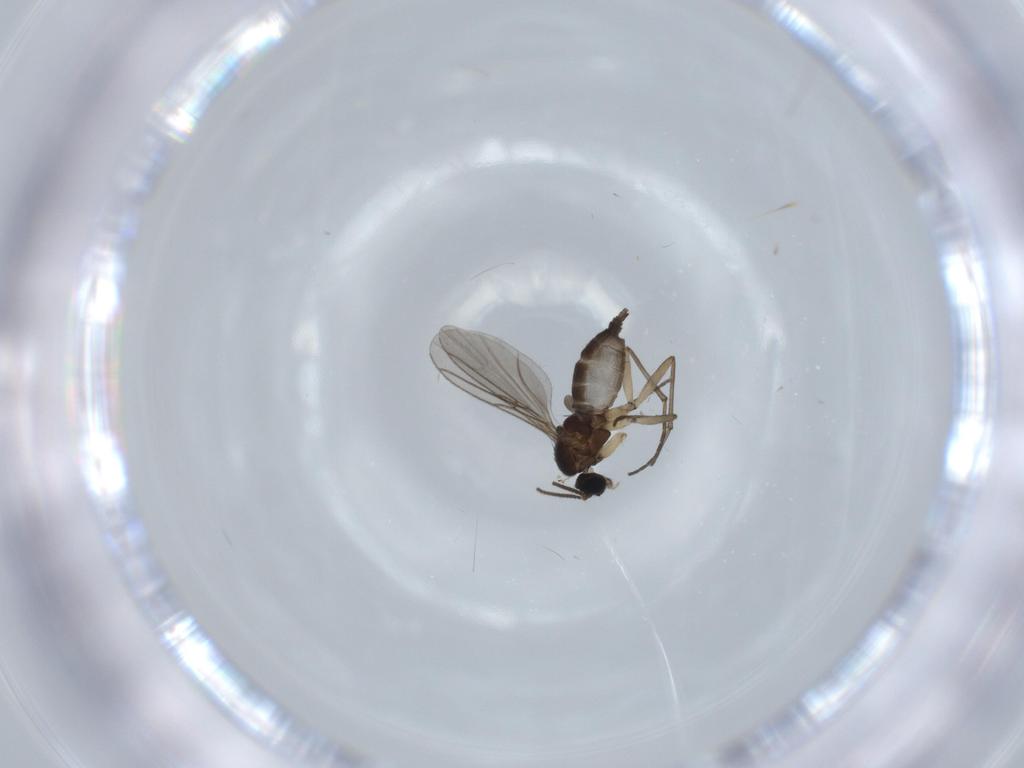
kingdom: Animalia
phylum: Arthropoda
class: Insecta
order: Diptera
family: Sciaridae
